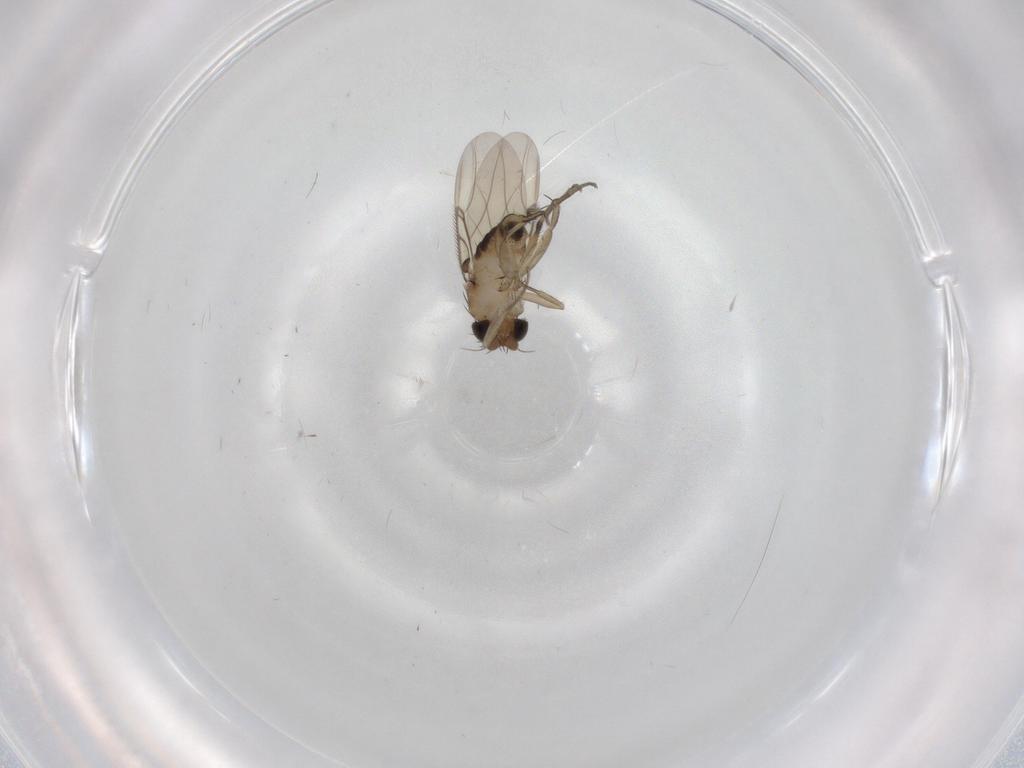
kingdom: Animalia
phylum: Arthropoda
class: Insecta
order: Diptera
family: Phoridae
